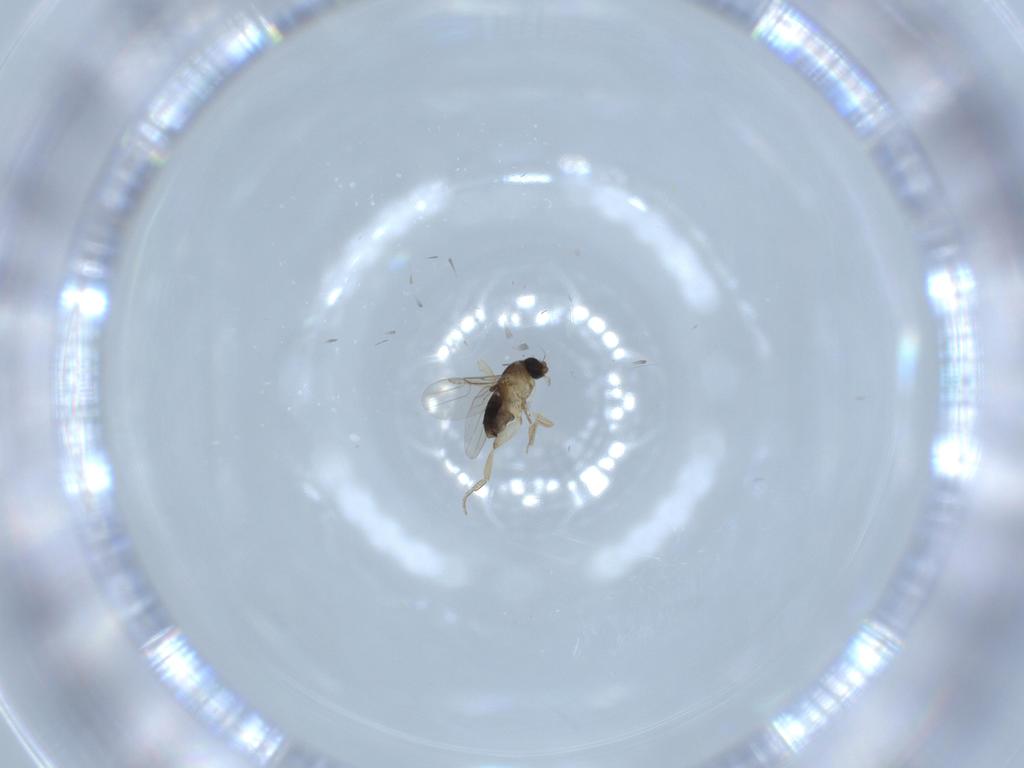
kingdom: Animalia
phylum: Arthropoda
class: Insecta
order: Diptera
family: Phoridae
